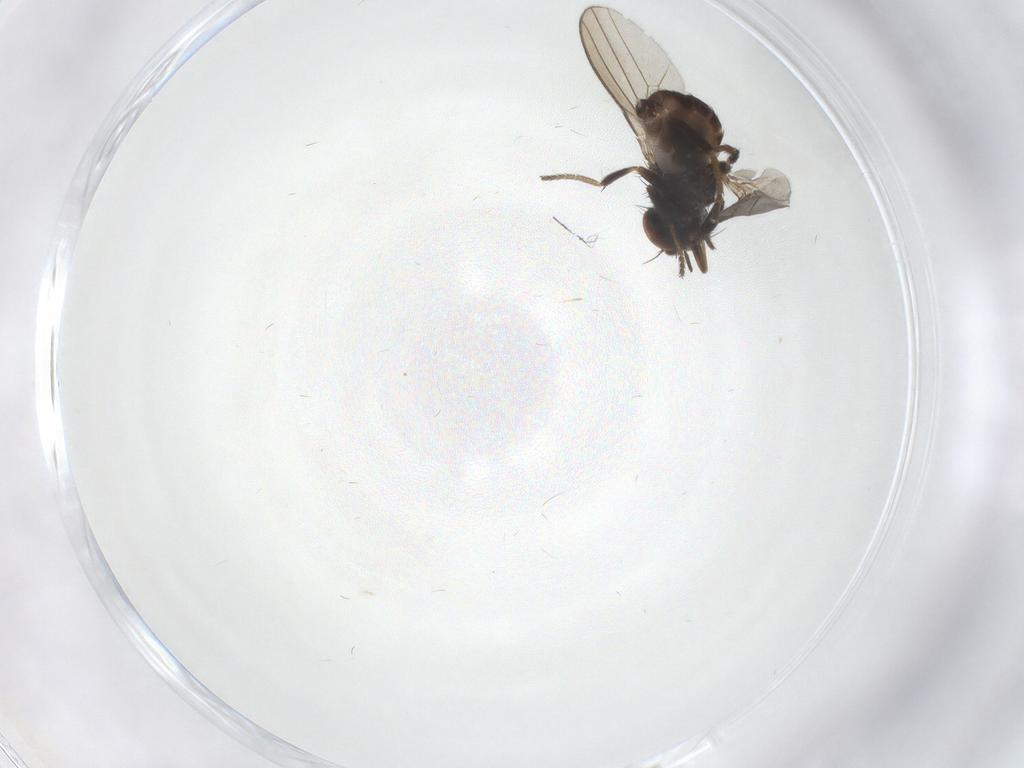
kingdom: Animalia
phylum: Arthropoda
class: Insecta
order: Diptera
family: Milichiidae
